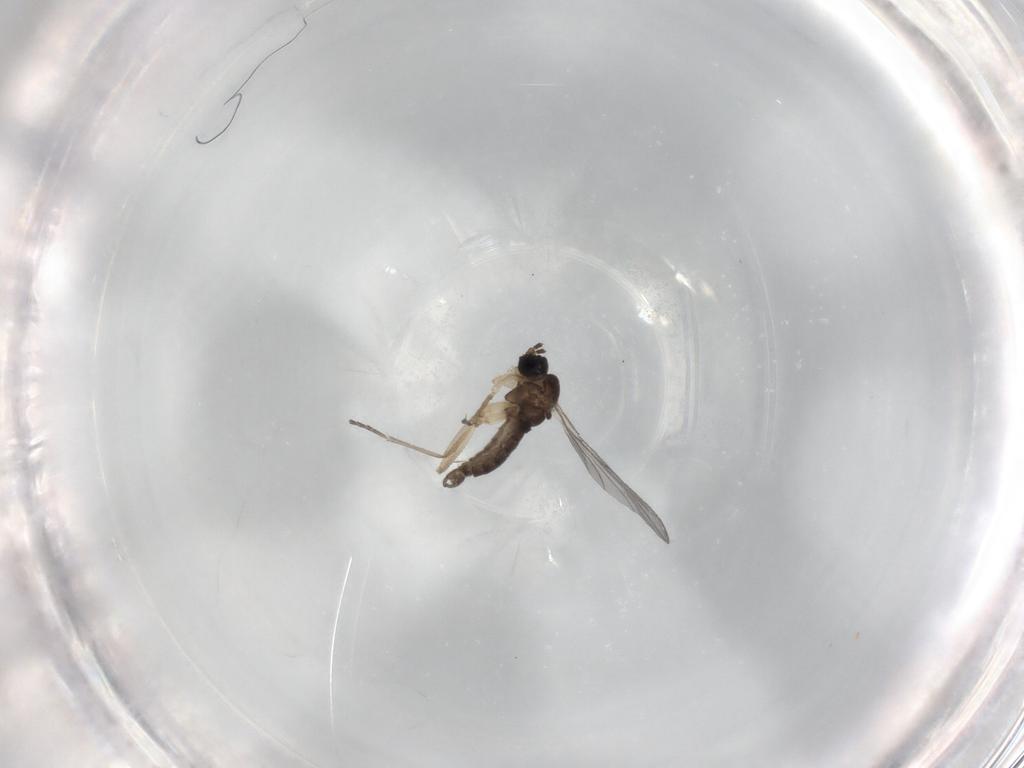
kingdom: Animalia
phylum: Arthropoda
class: Insecta
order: Diptera
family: Sciaridae
